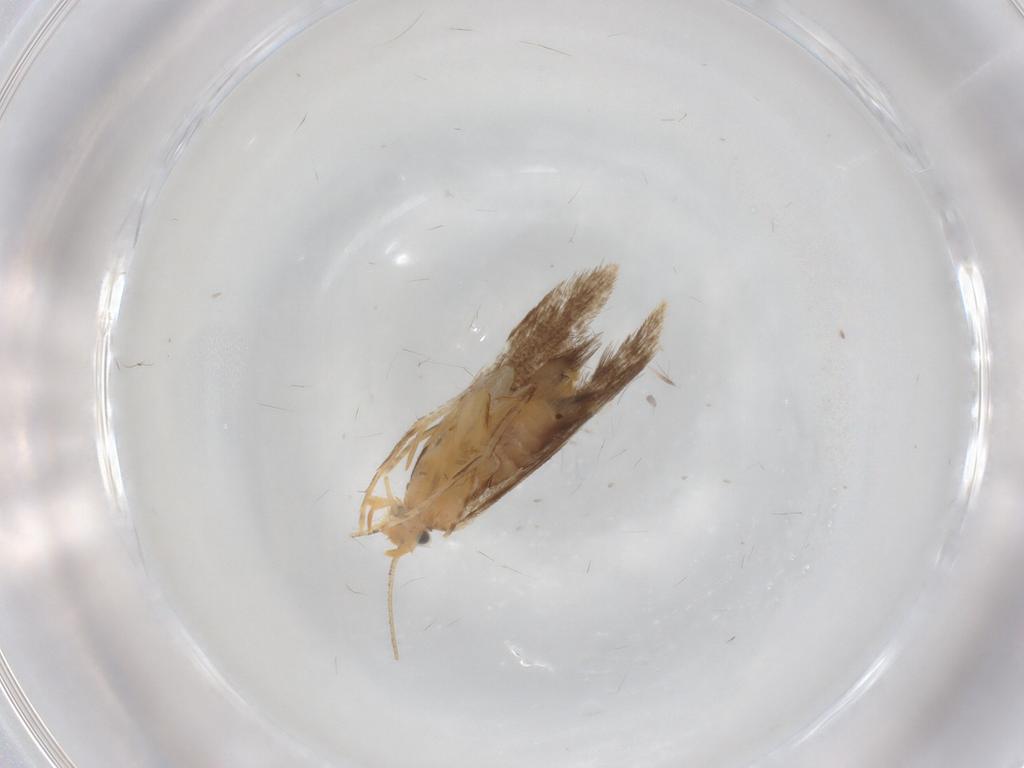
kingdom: Animalia
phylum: Arthropoda
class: Insecta
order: Lepidoptera
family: Dryadaulidae
